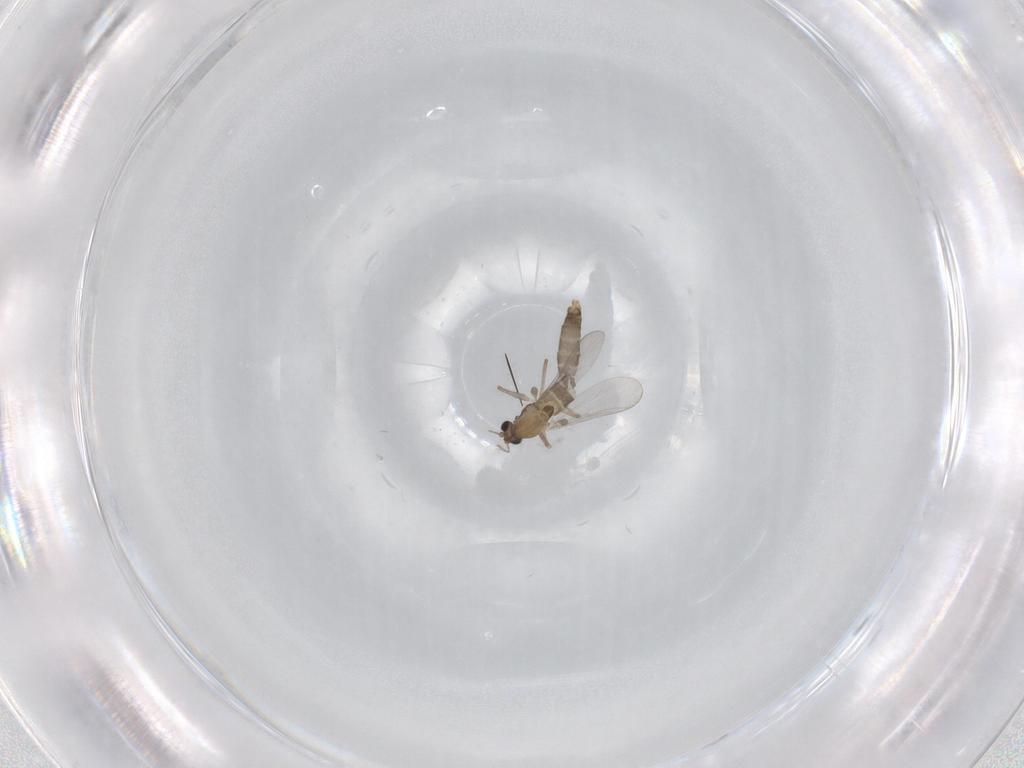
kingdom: Animalia
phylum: Arthropoda
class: Insecta
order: Diptera
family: Chironomidae
